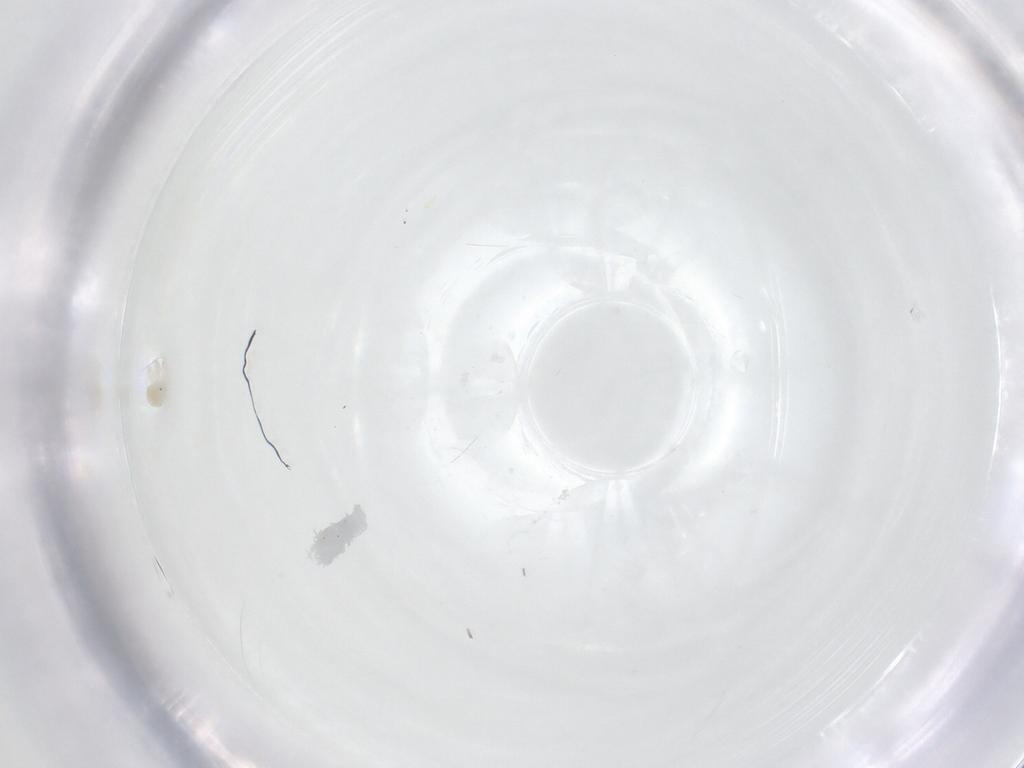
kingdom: Animalia
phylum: Arthropoda
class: Arachnida
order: Trombidiformes
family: Anystidae
